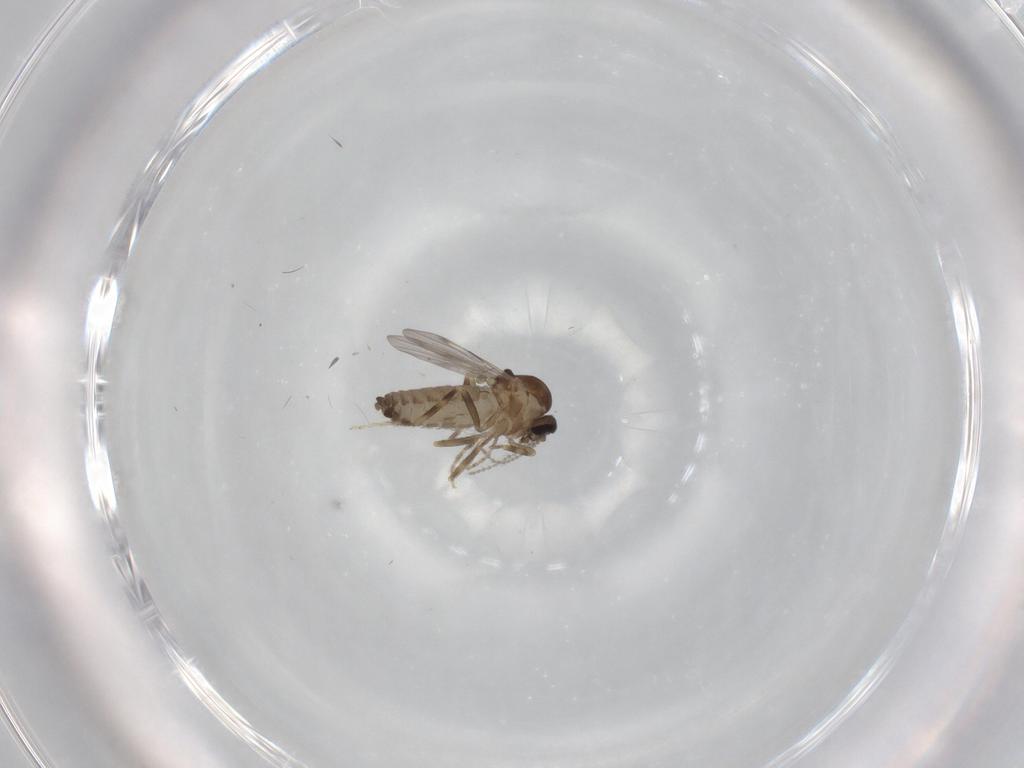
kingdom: Animalia
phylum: Arthropoda
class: Insecta
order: Diptera
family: Ceratopogonidae
